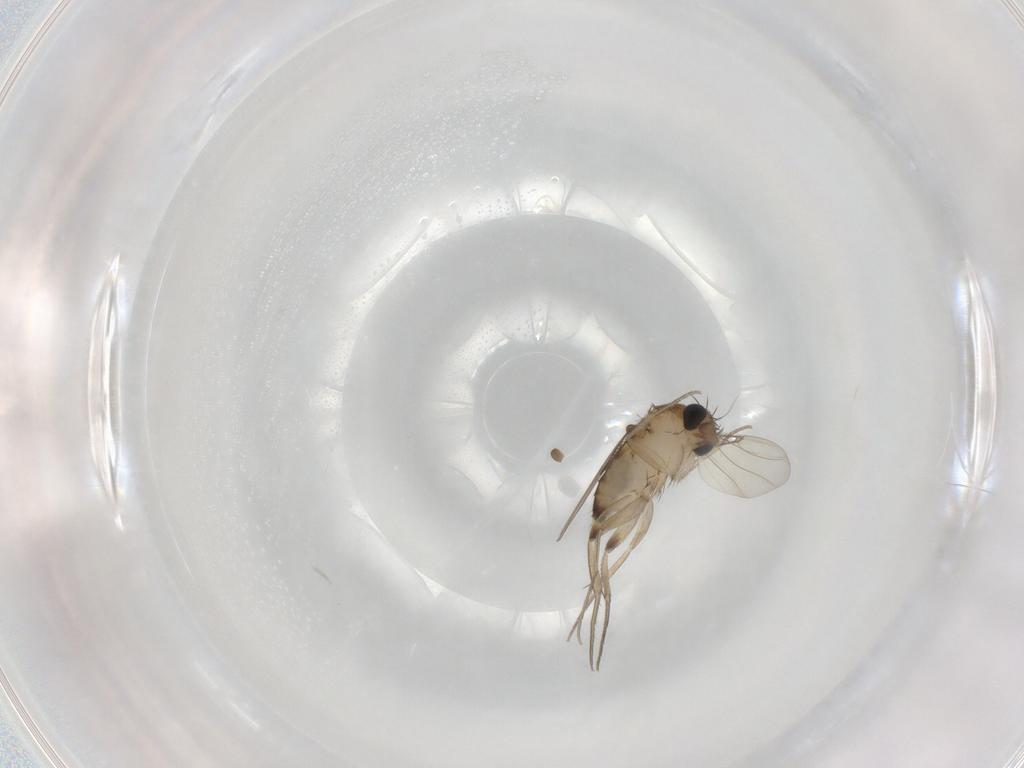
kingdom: Animalia
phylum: Arthropoda
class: Insecta
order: Diptera
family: Phoridae
